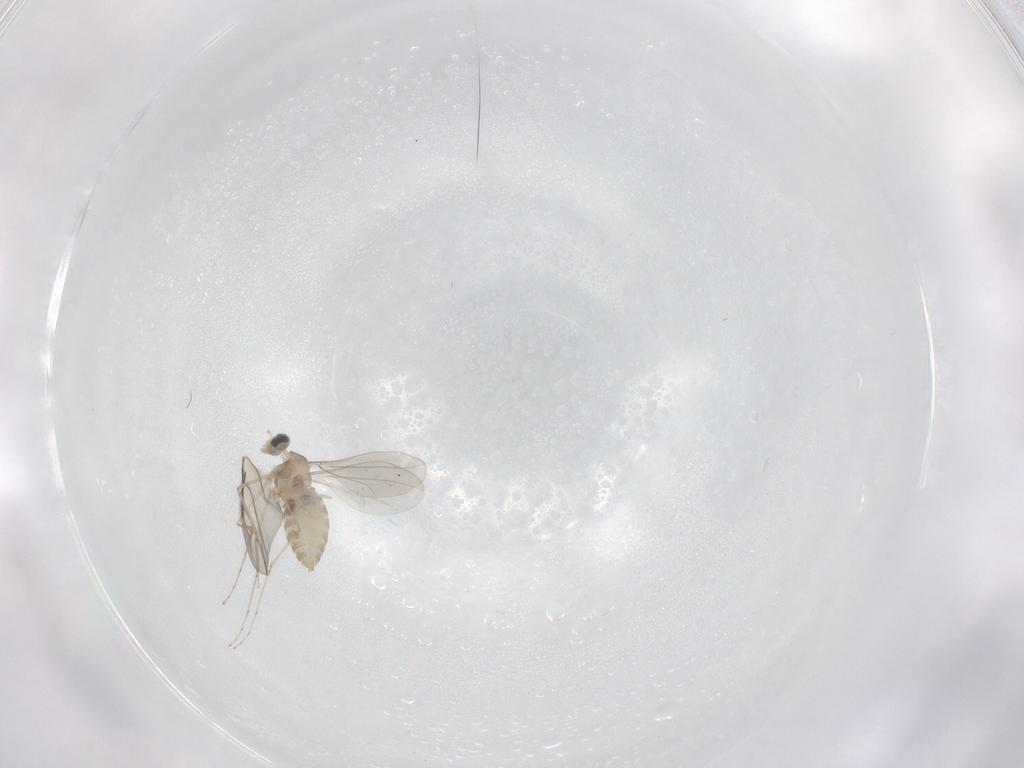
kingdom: Animalia
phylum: Arthropoda
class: Insecta
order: Diptera
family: Cecidomyiidae
